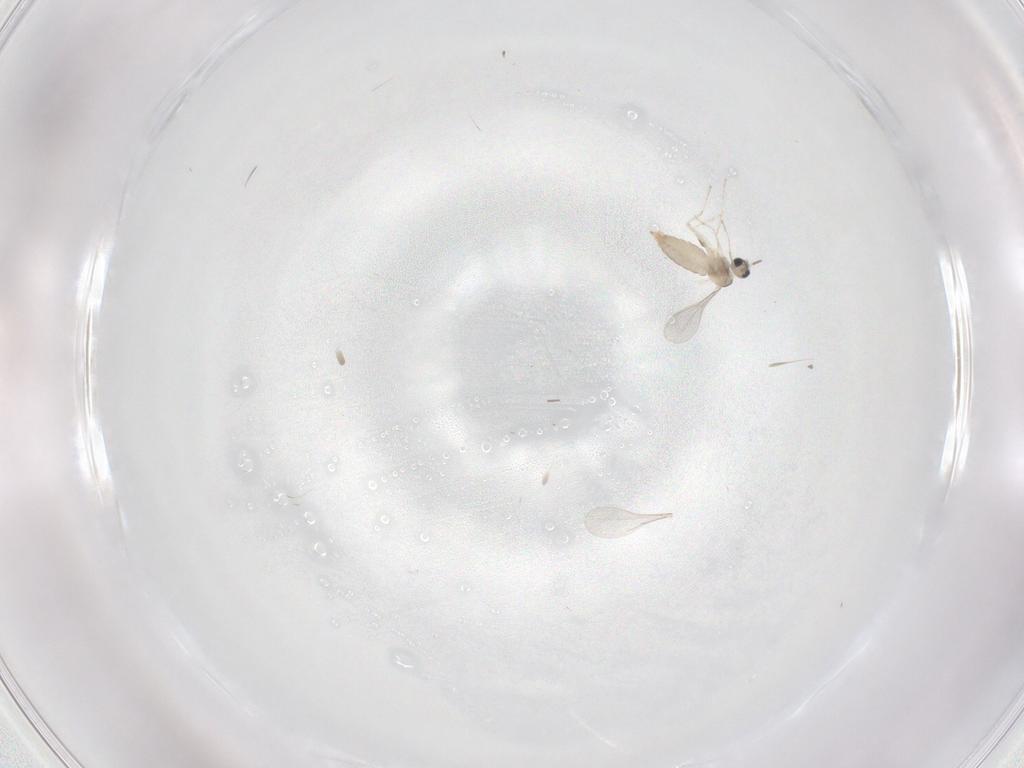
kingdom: Animalia
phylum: Arthropoda
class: Insecta
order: Diptera
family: Cecidomyiidae
